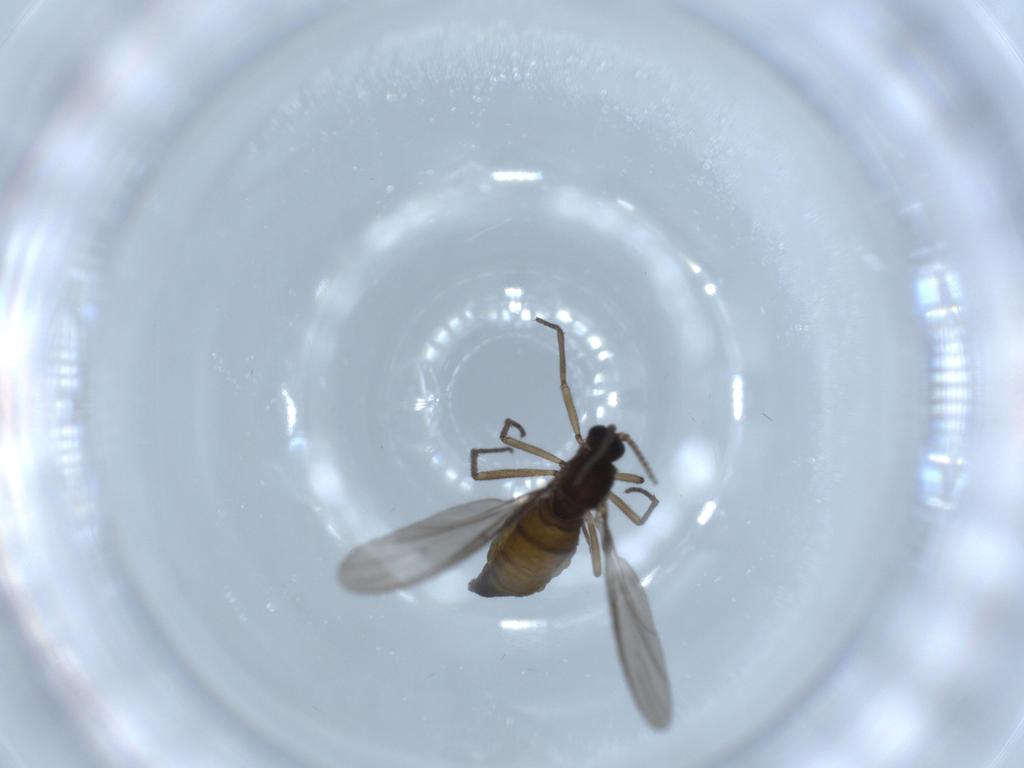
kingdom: Animalia
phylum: Arthropoda
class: Insecta
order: Diptera
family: Sciaridae
